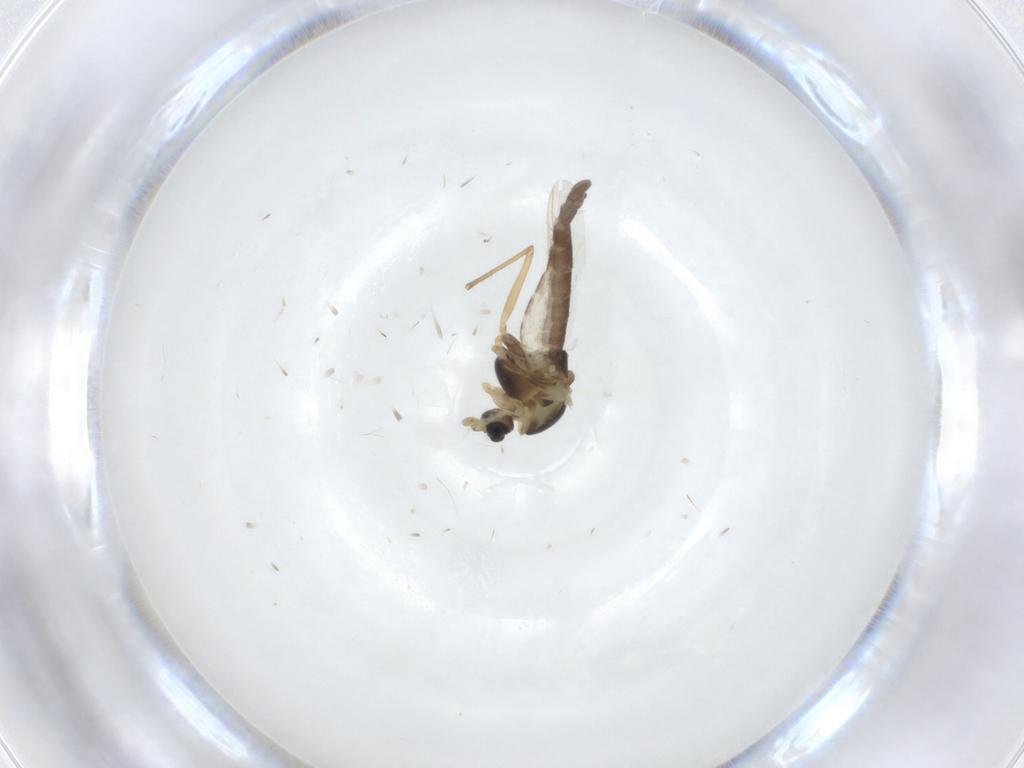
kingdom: Animalia
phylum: Arthropoda
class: Insecta
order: Diptera
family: Chironomidae
